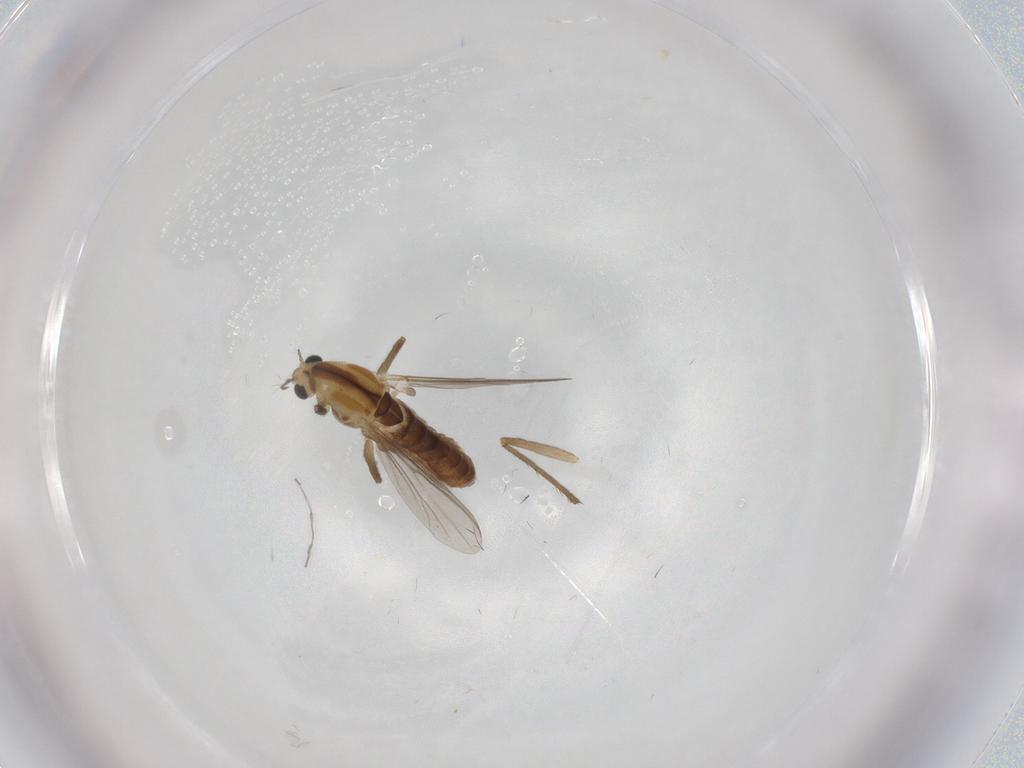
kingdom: Animalia
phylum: Arthropoda
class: Insecta
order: Diptera
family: Chironomidae
